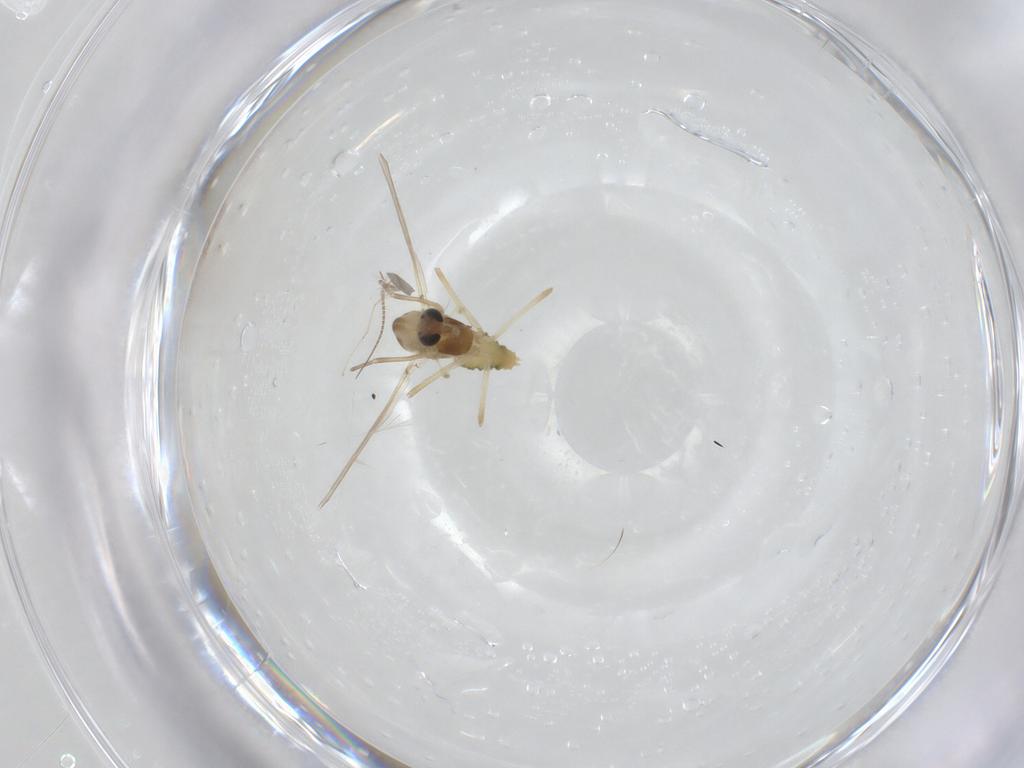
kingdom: Animalia
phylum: Arthropoda
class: Insecta
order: Diptera
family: Chironomidae
